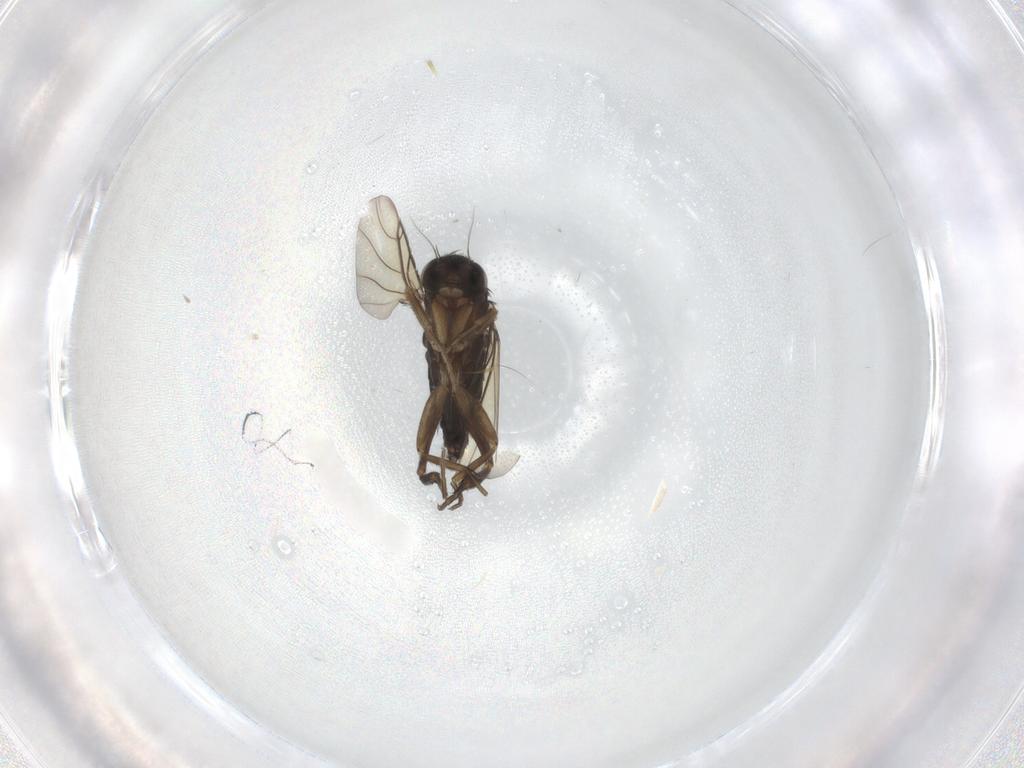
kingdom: Animalia
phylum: Arthropoda
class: Insecta
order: Diptera
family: Phoridae
